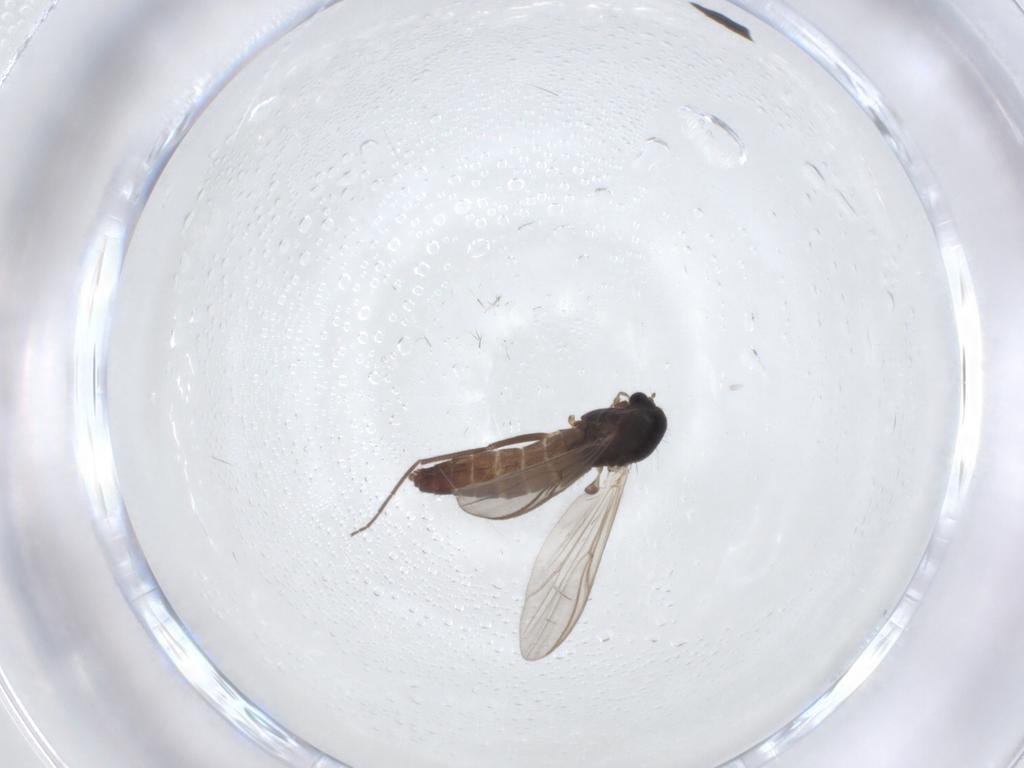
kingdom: Animalia
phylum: Arthropoda
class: Insecta
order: Diptera
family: Chironomidae
